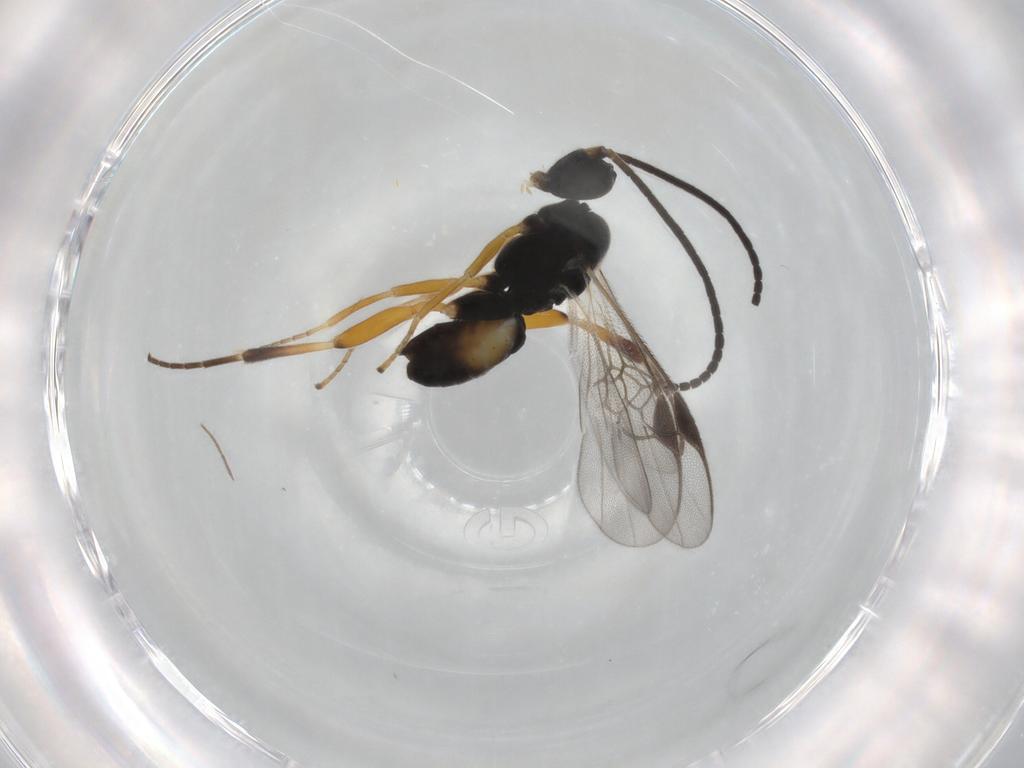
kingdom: Animalia
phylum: Arthropoda
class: Insecta
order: Hymenoptera
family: Braconidae
